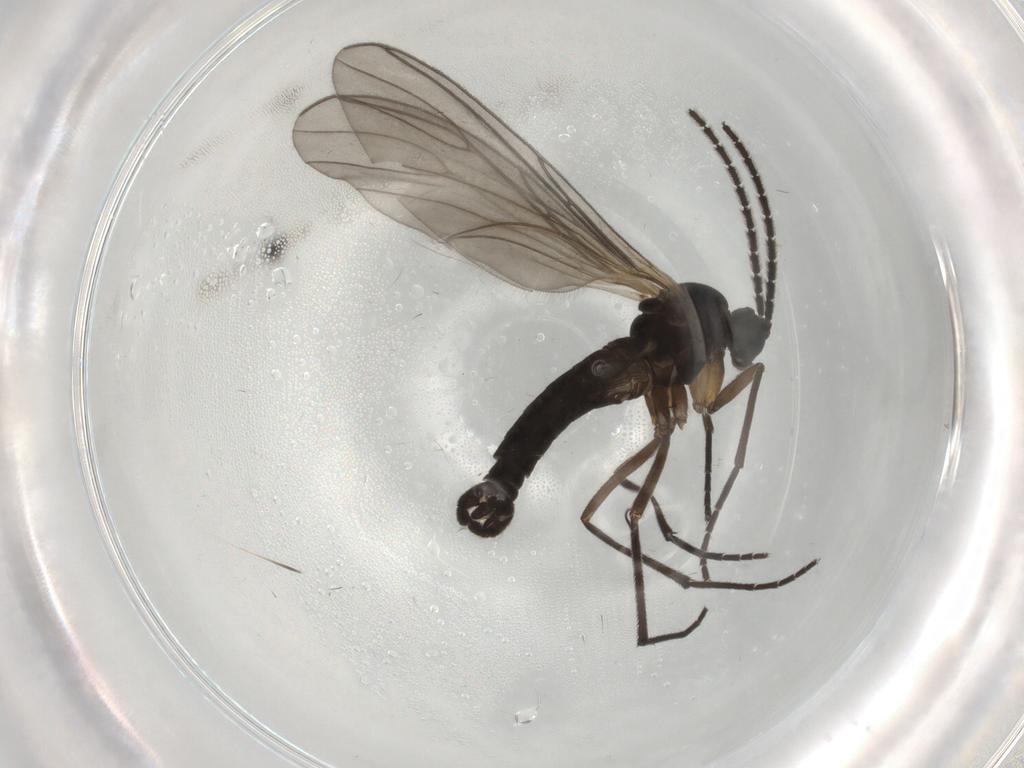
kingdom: Animalia
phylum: Arthropoda
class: Insecta
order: Diptera
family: Sciaridae
